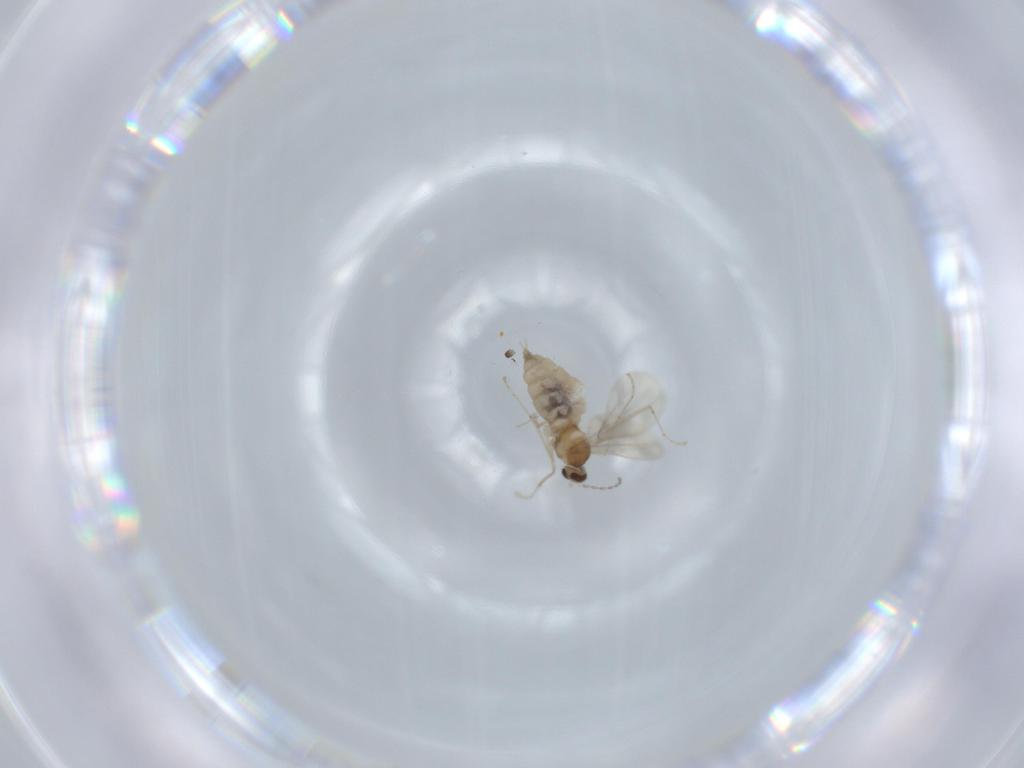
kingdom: Animalia
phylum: Arthropoda
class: Insecta
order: Diptera
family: Cecidomyiidae
